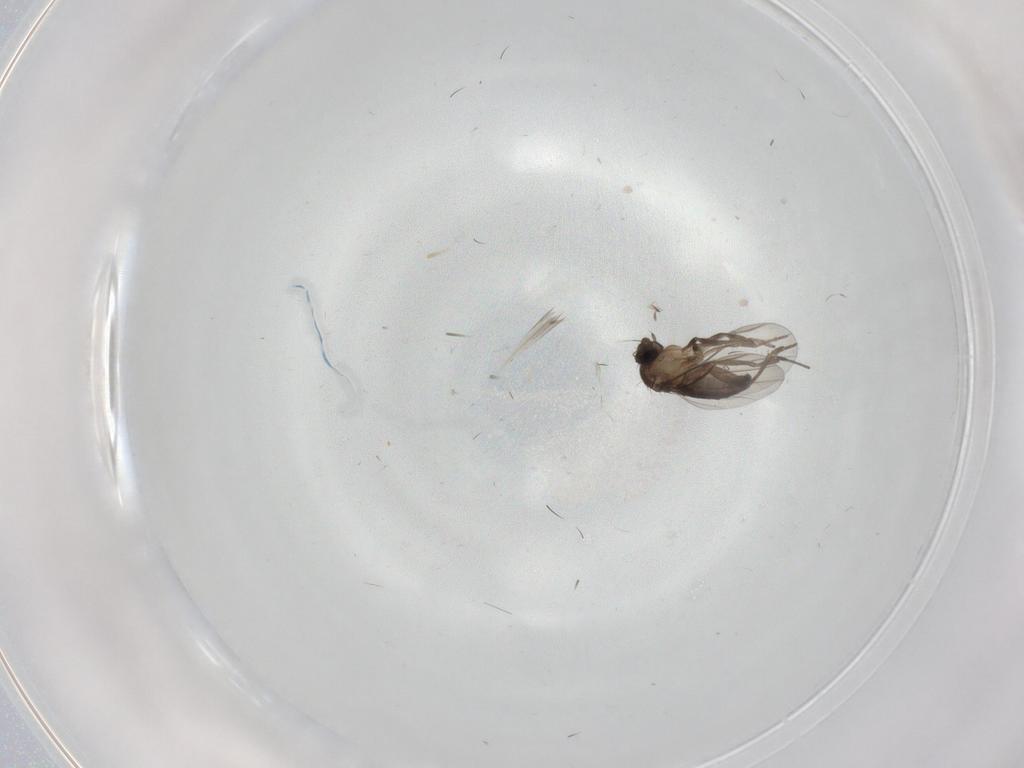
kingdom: Animalia
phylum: Arthropoda
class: Insecta
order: Diptera
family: Phoridae
